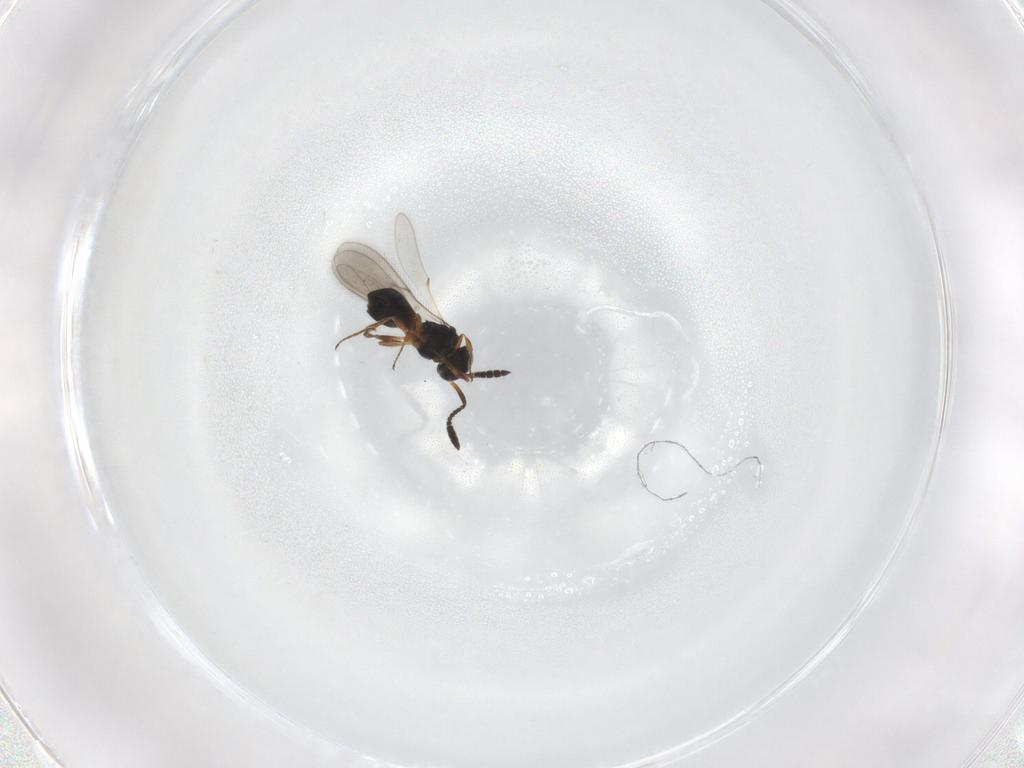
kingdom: Animalia
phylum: Arthropoda
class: Insecta
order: Hymenoptera
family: Scelionidae
